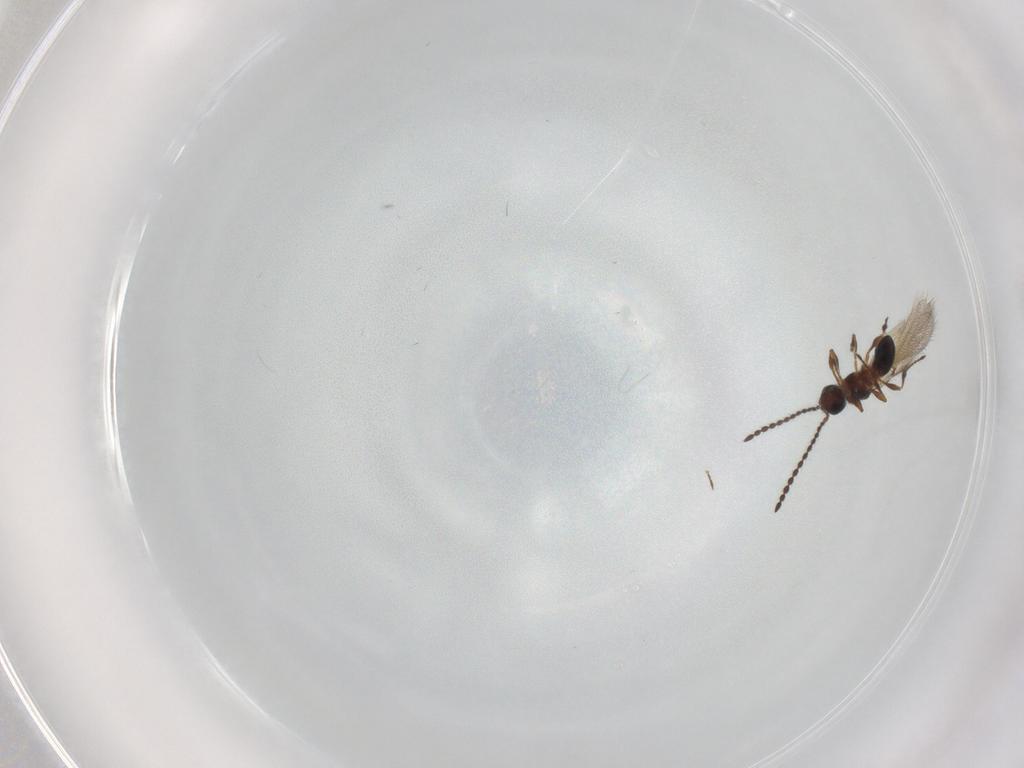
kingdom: Animalia
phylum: Arthropoda
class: Insecta
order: Hymenoptera
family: Diapriidae
